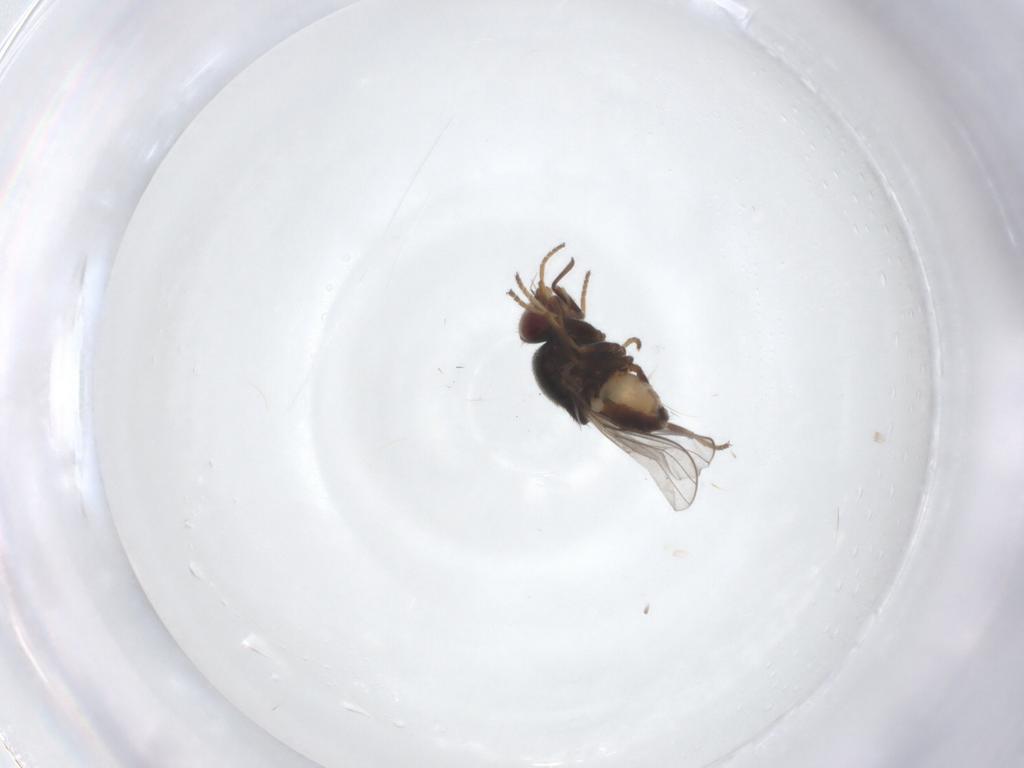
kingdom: Animalia
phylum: Arthropoda
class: Insecta
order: Diptera
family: Chloropidae
